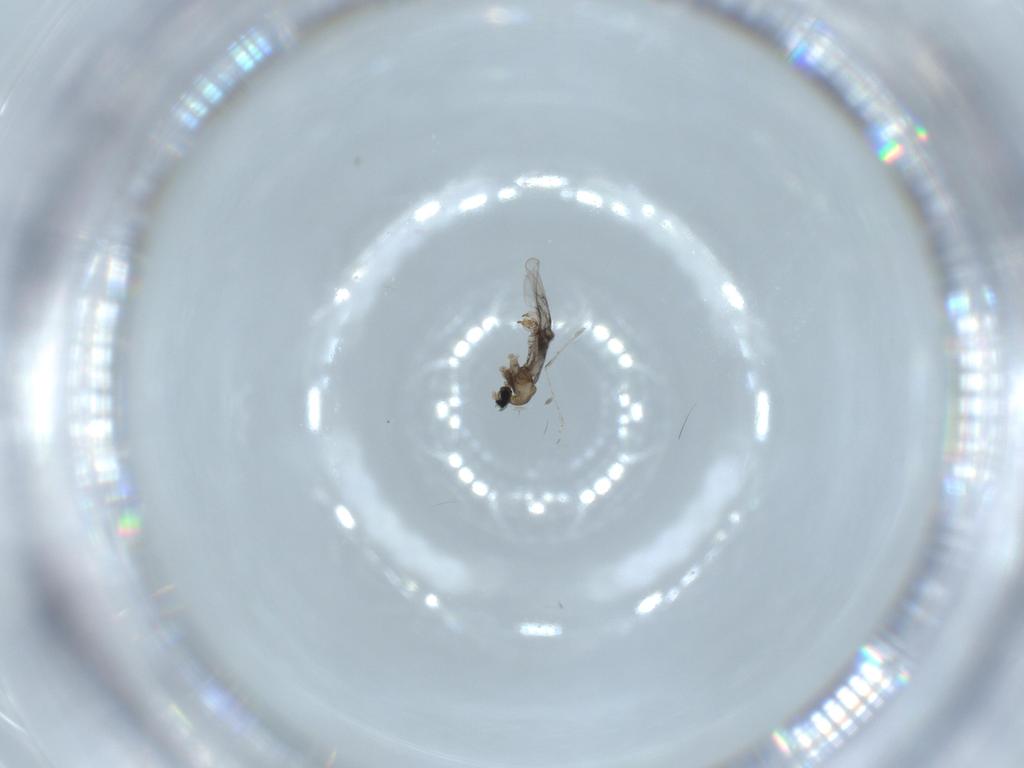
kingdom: Animalia
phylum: Arthropoda
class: Insecta
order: Diptera
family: Cecidomyiidae
